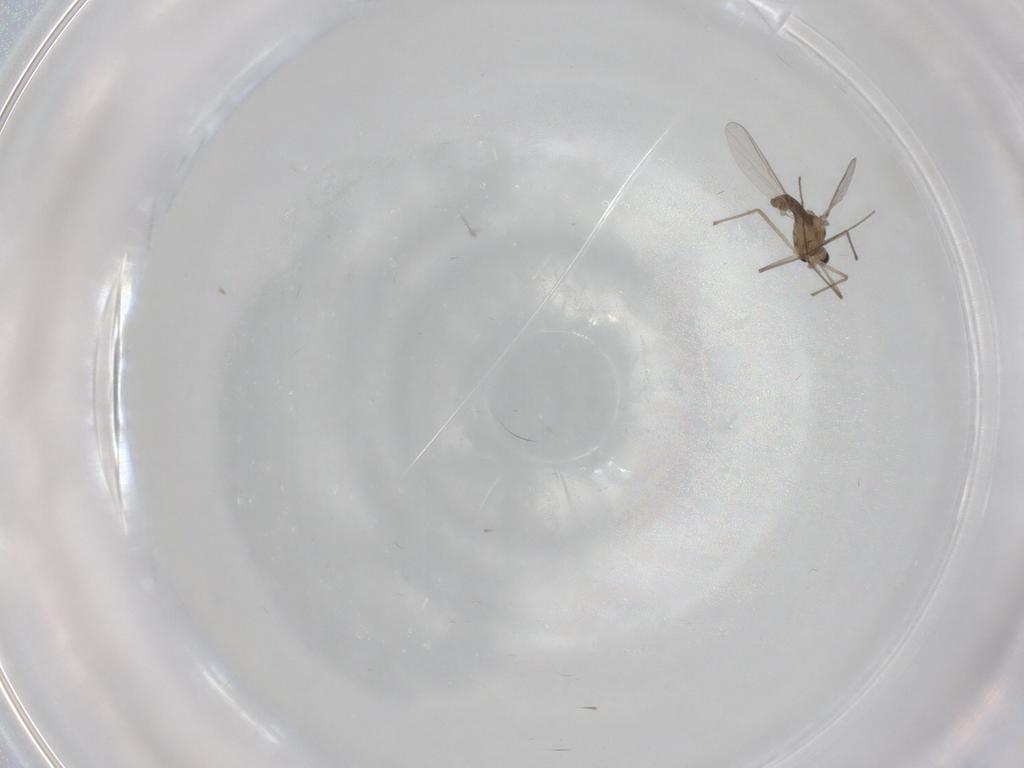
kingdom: Animalia
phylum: Arthropoda
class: Insecta
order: Diptera
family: Chironomidae
